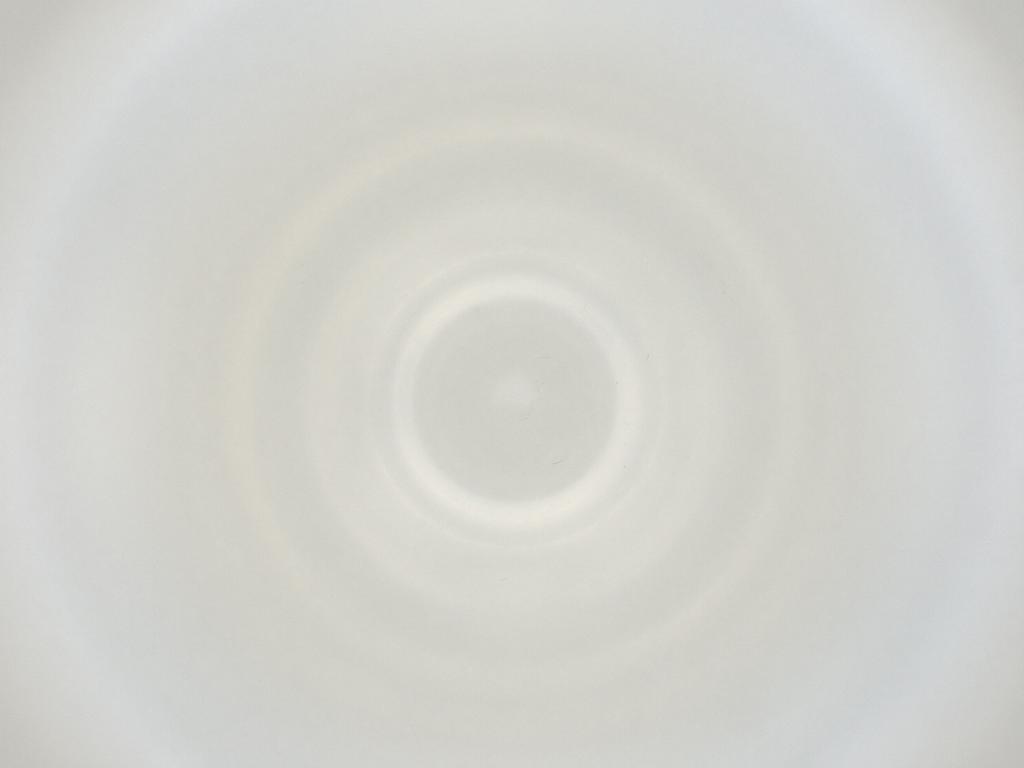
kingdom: Animalia
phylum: Arthropoda
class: Insecta
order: Diptera
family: Cecidomyiidae
